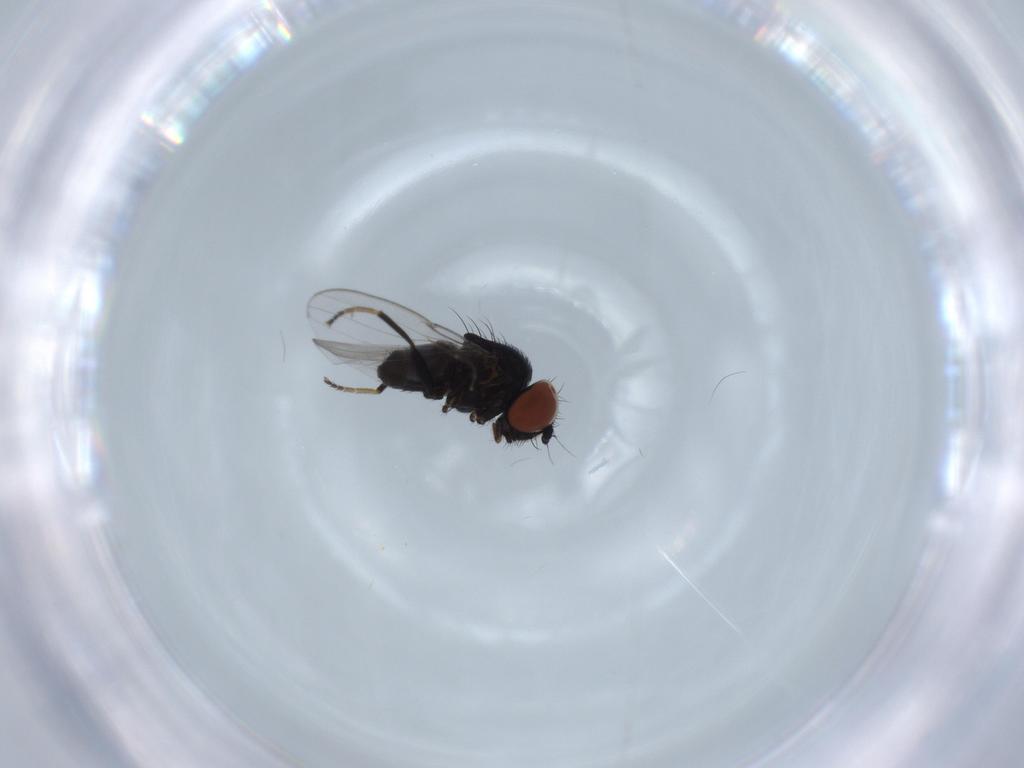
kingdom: Animalia
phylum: Arthropoda
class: Insecta
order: Diptera
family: Milichiidae
